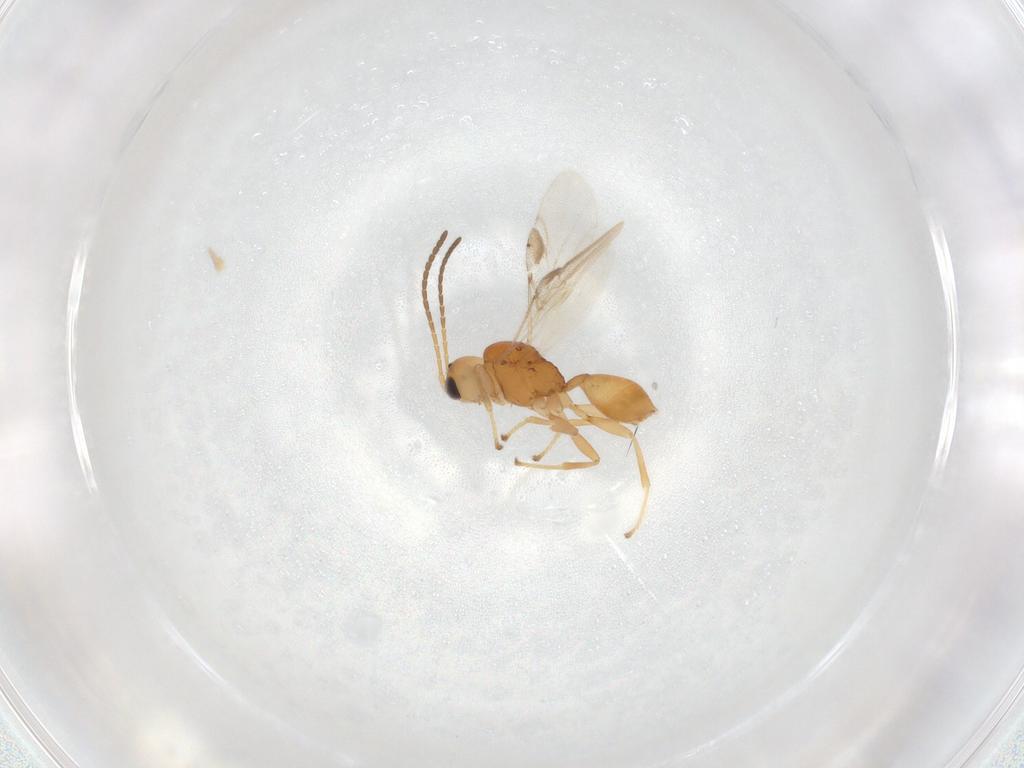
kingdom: Animalia
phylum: Arthropoda
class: Insecta
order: Hymenoptera
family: Braconidae
